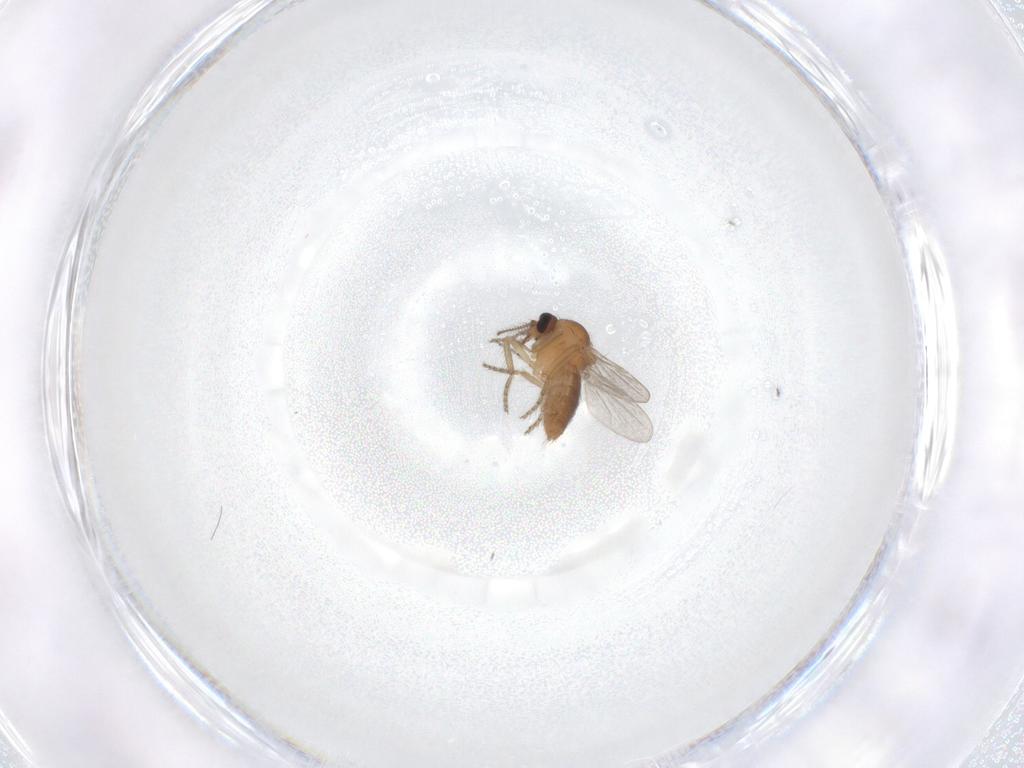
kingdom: Animalia
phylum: Arthropoda
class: Insecta
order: Diptera
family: Ceratopogonidae
